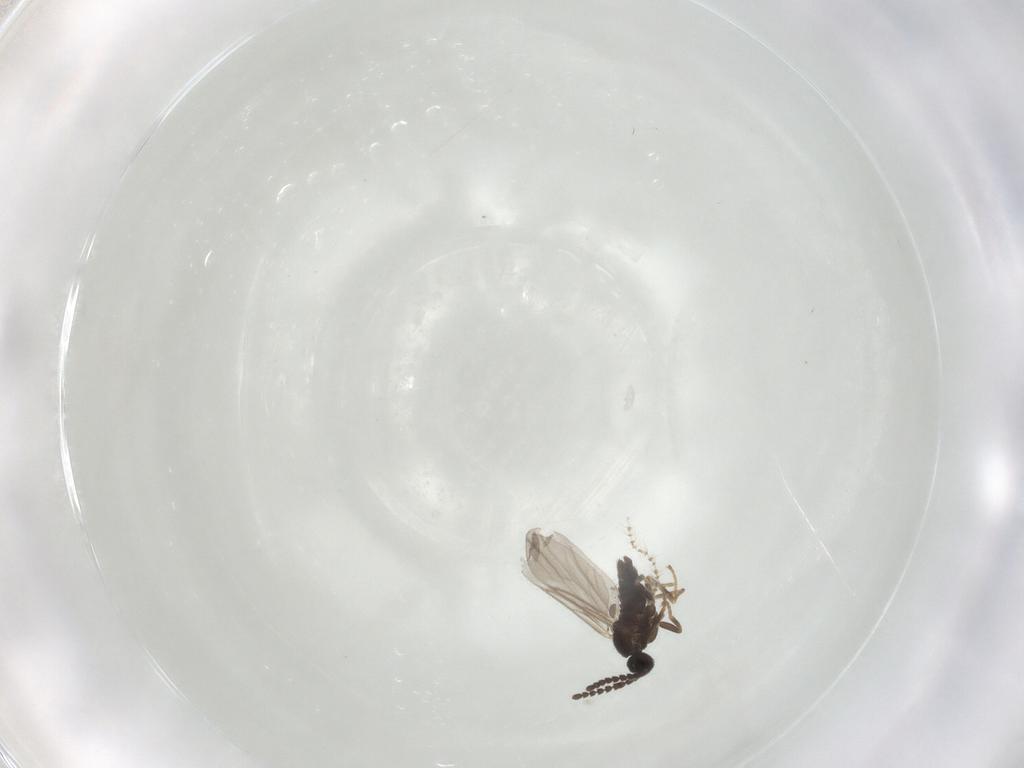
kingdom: Animalia
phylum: Arthropoda
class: Insecta
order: Diptera
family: Scatopsidae
